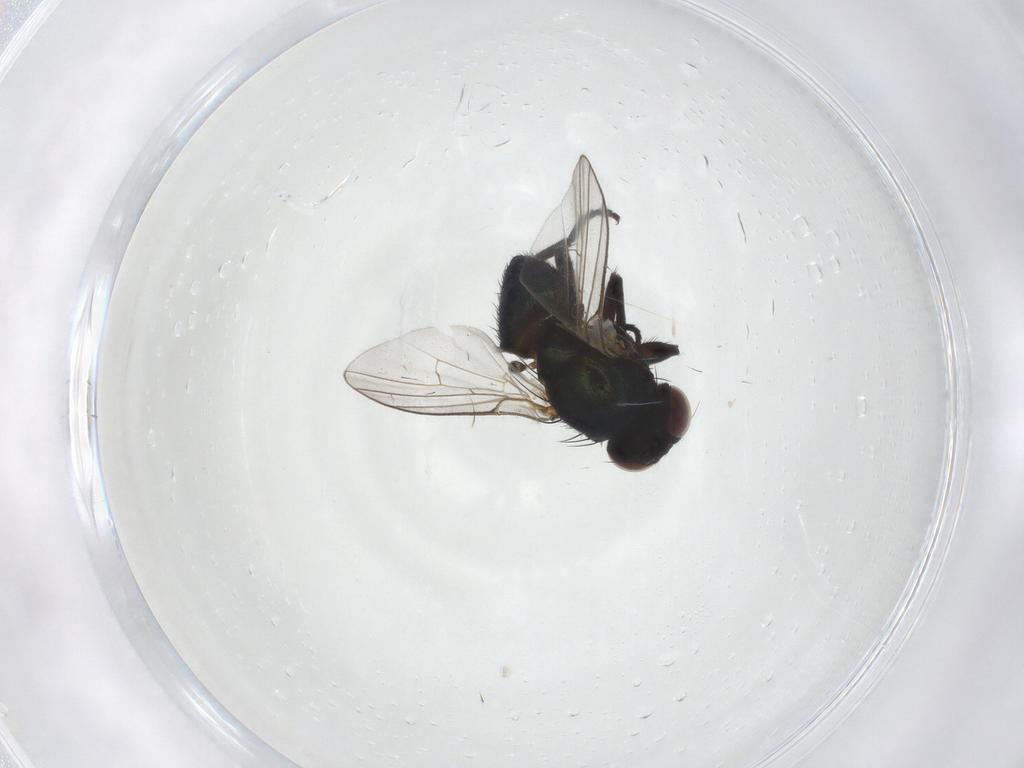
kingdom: Animalia
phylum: Arthropoda
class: Insecta
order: Diptera
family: Agromyzidae
